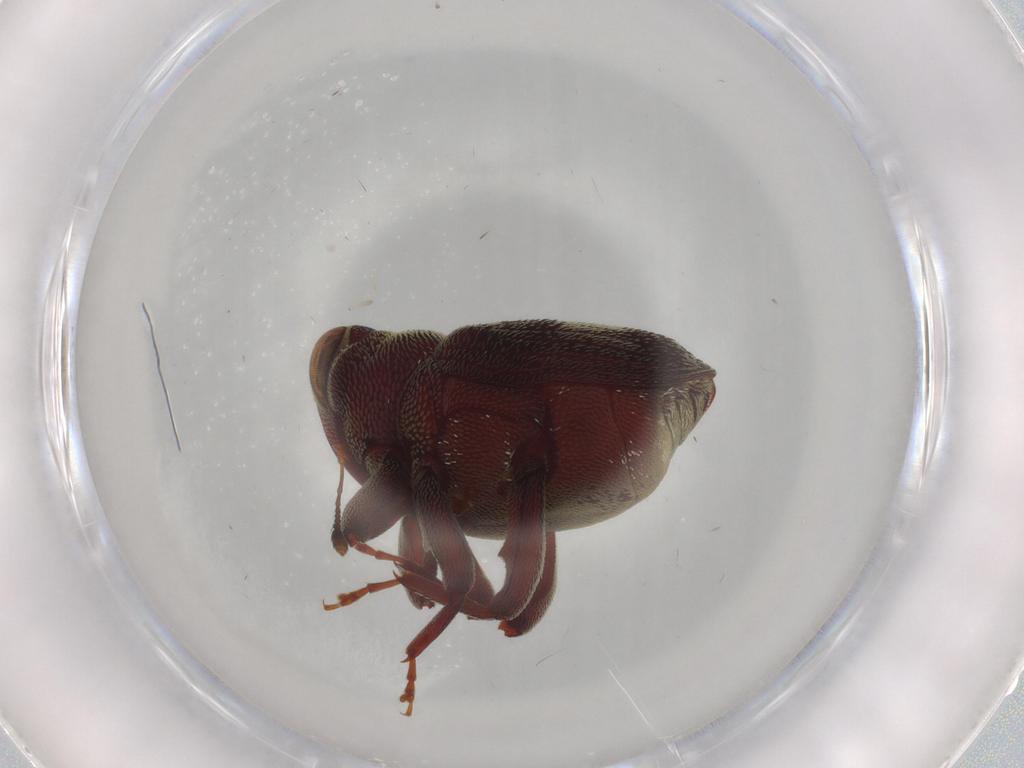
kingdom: Animalia
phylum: Arthropoda
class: Insecta
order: Coleoptera
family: Curculionidae
